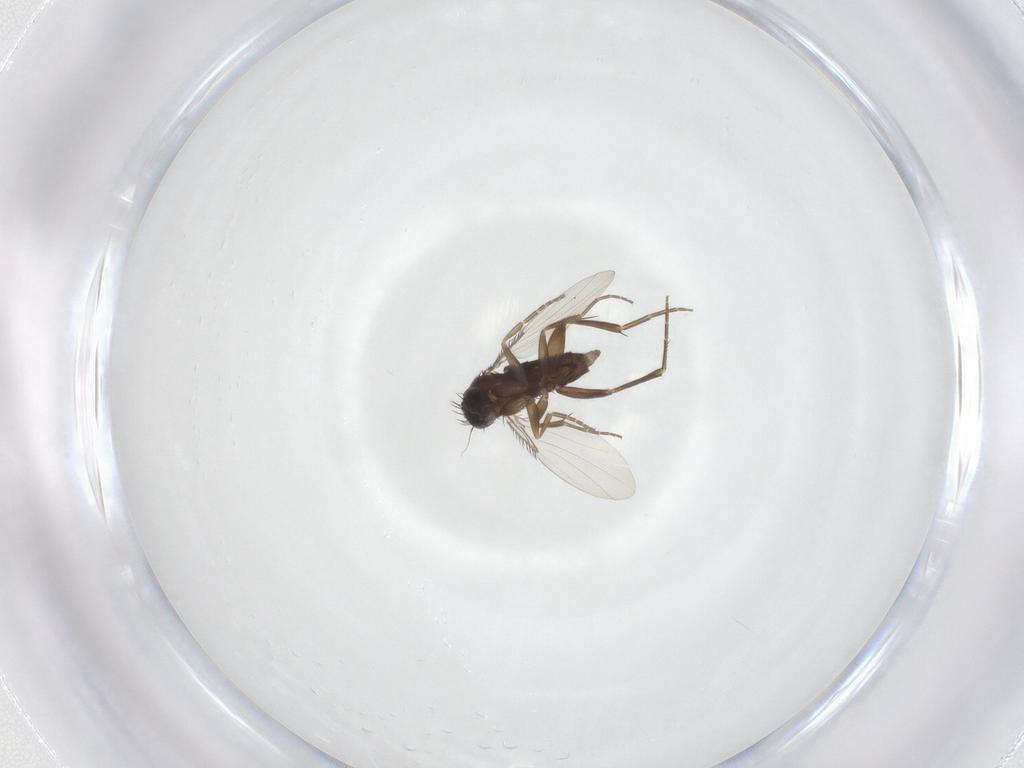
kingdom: Animalia
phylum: Arthropoda
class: Insecta
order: Diptera
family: Phoridae
